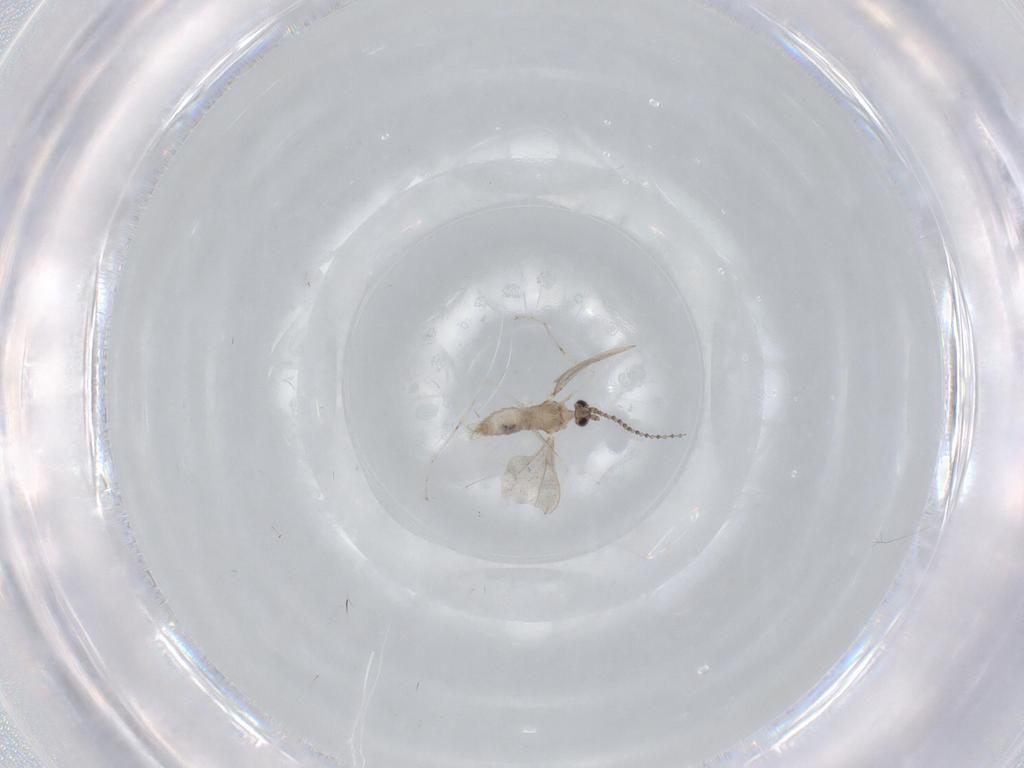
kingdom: Animalia
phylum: Arthropoda
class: Insecta
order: Diptera
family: Cecidomyiidae
